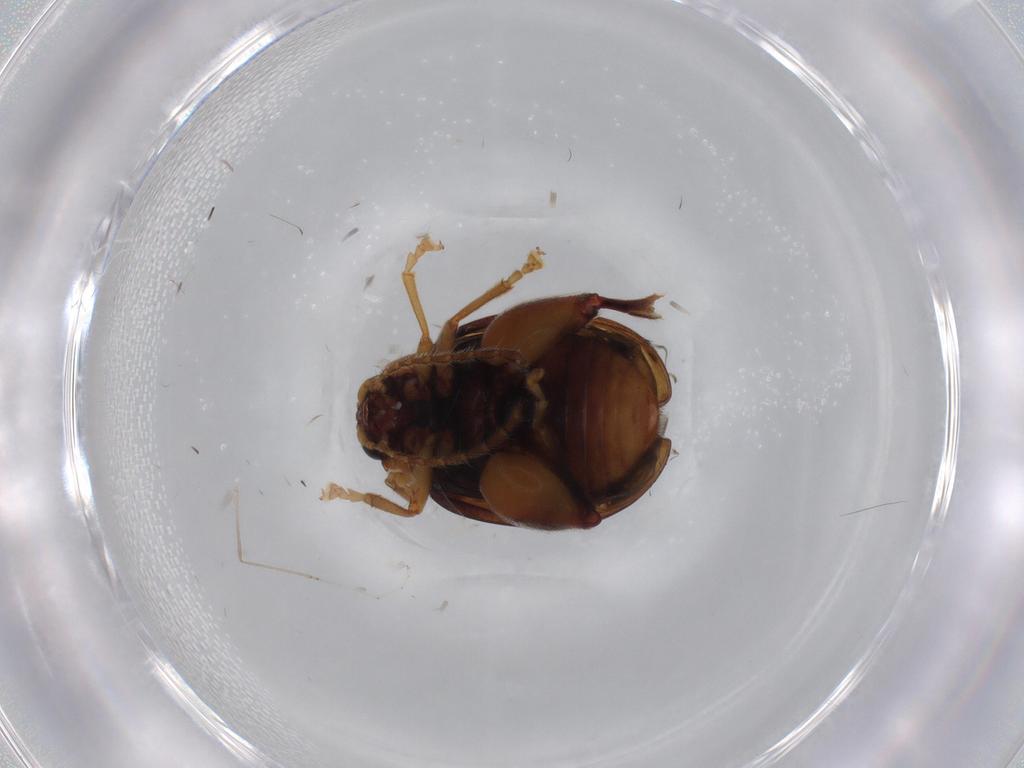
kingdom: Animalia
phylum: Arthropoda
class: Insecta
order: Coleoptera
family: Chrysomelidae
